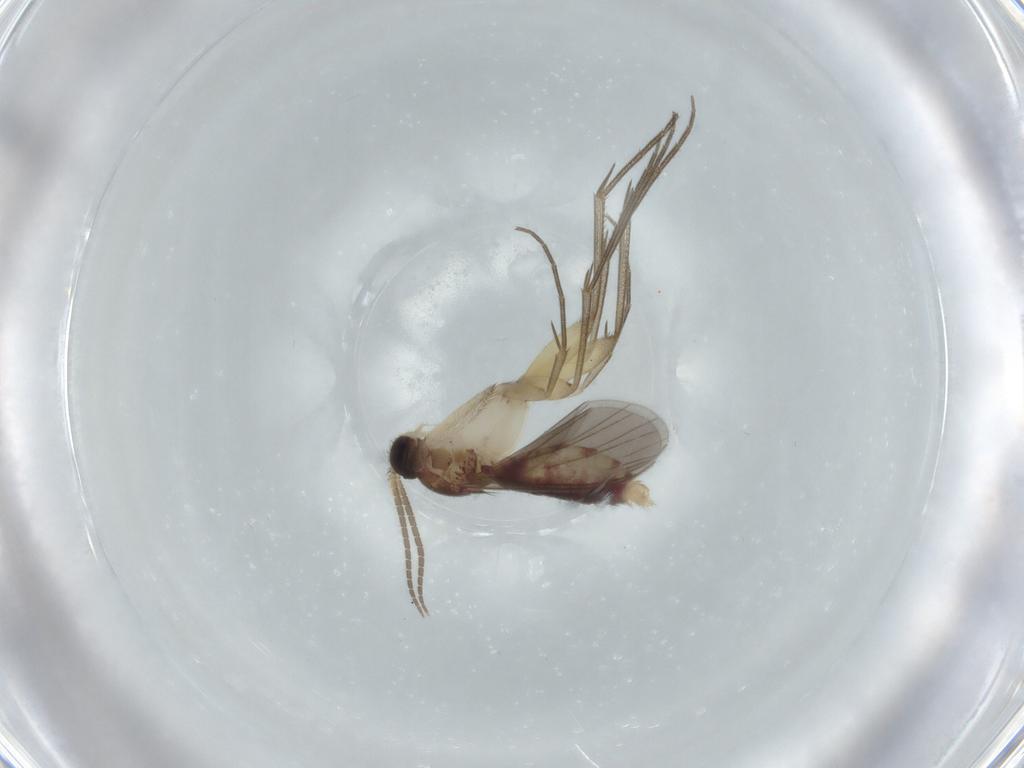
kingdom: Animalia
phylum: Arthropoda
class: Insecta
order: Diptera
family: Mycetophilidae
